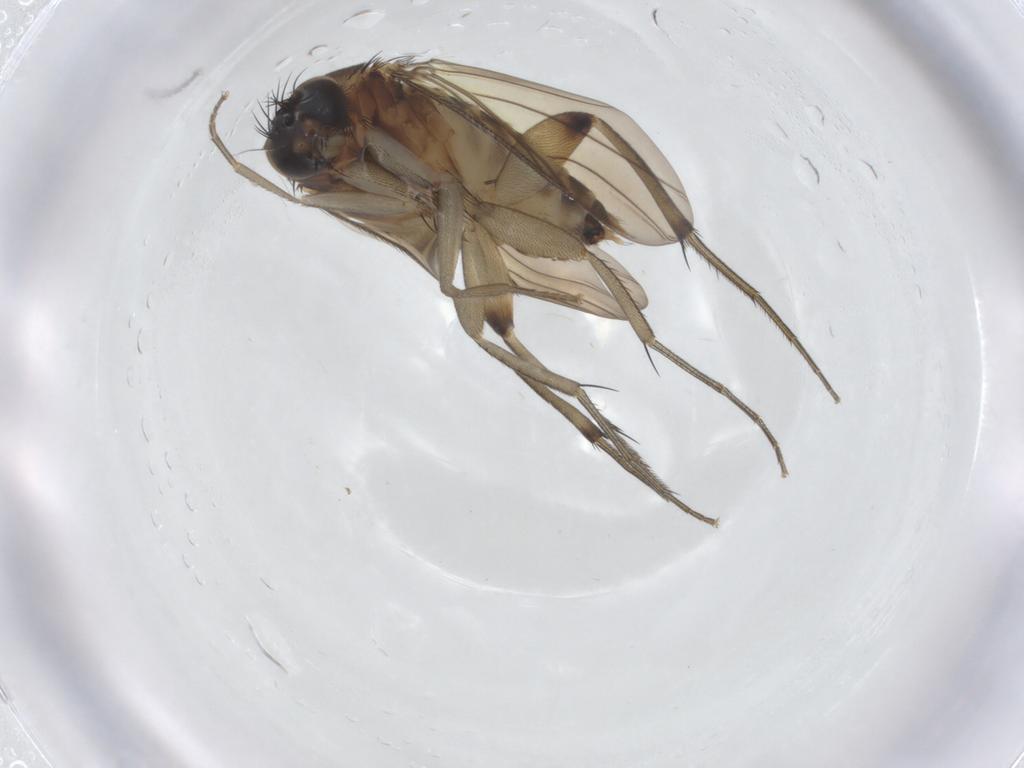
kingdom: Animalia
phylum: Arthropoda
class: Insecta
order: Diptera
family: Phoridae
